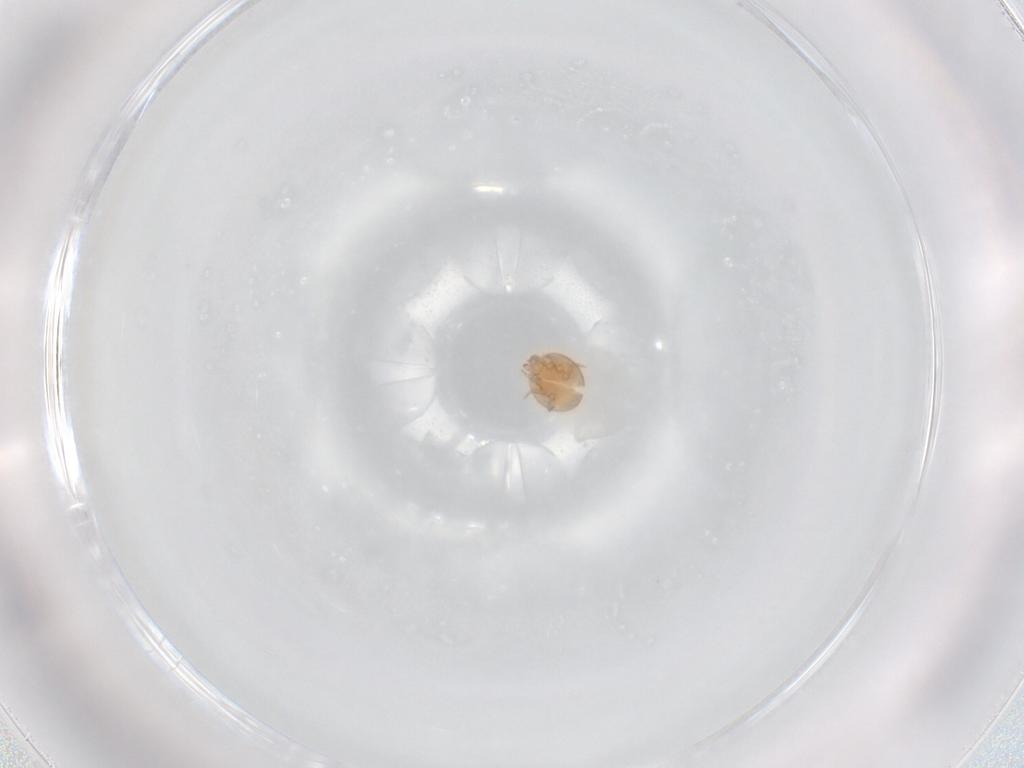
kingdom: Animalia
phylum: Arthropoda
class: Arachnida
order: Mesostigmata
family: Trematuridae
